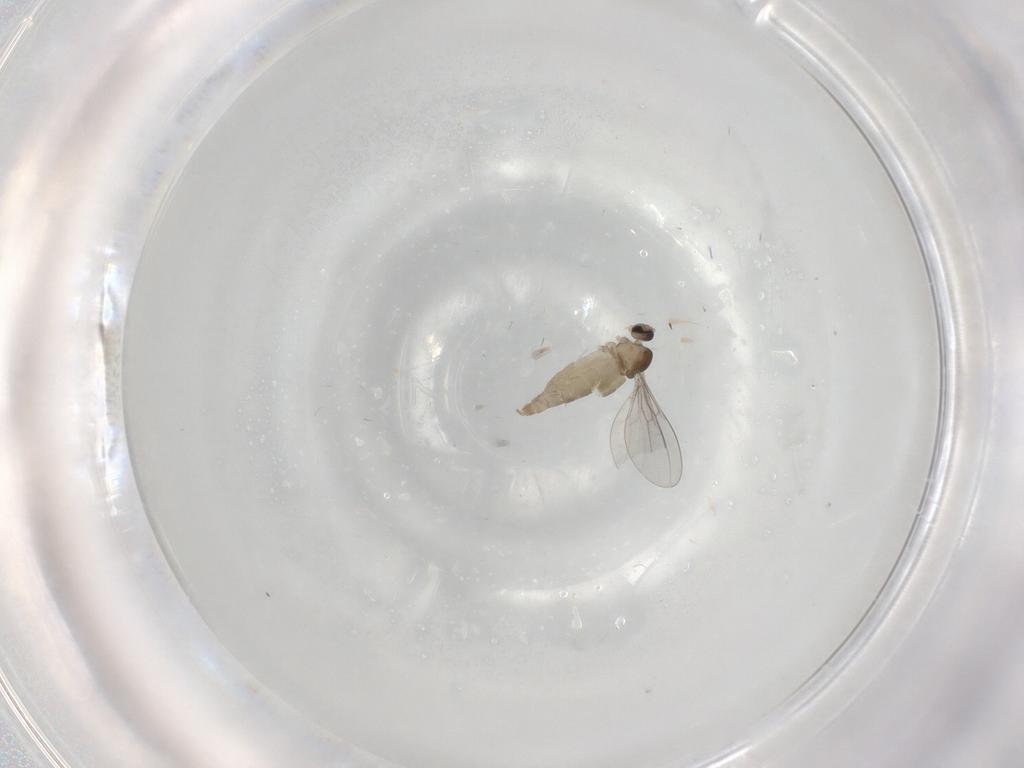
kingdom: Animalia
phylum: Arthropoda
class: Insecta
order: Diptera
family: Cecidomyiidae
